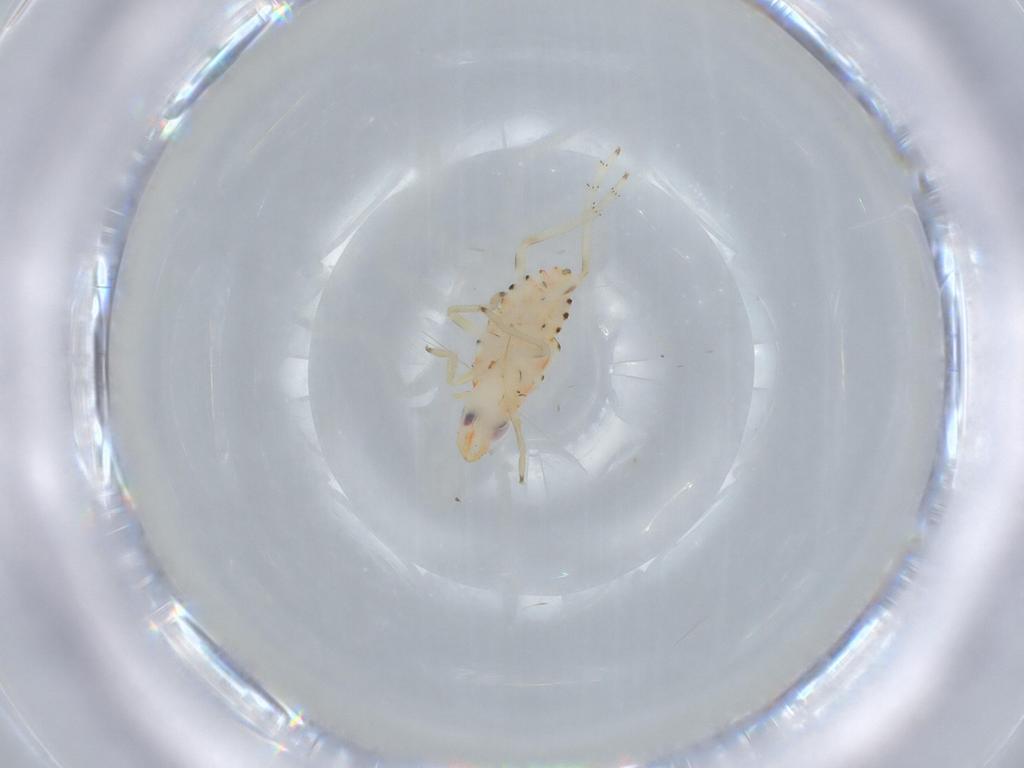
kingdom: Animalia
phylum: Arthropoda
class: Insecta
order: Hemiptera
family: Tropiduchidae
